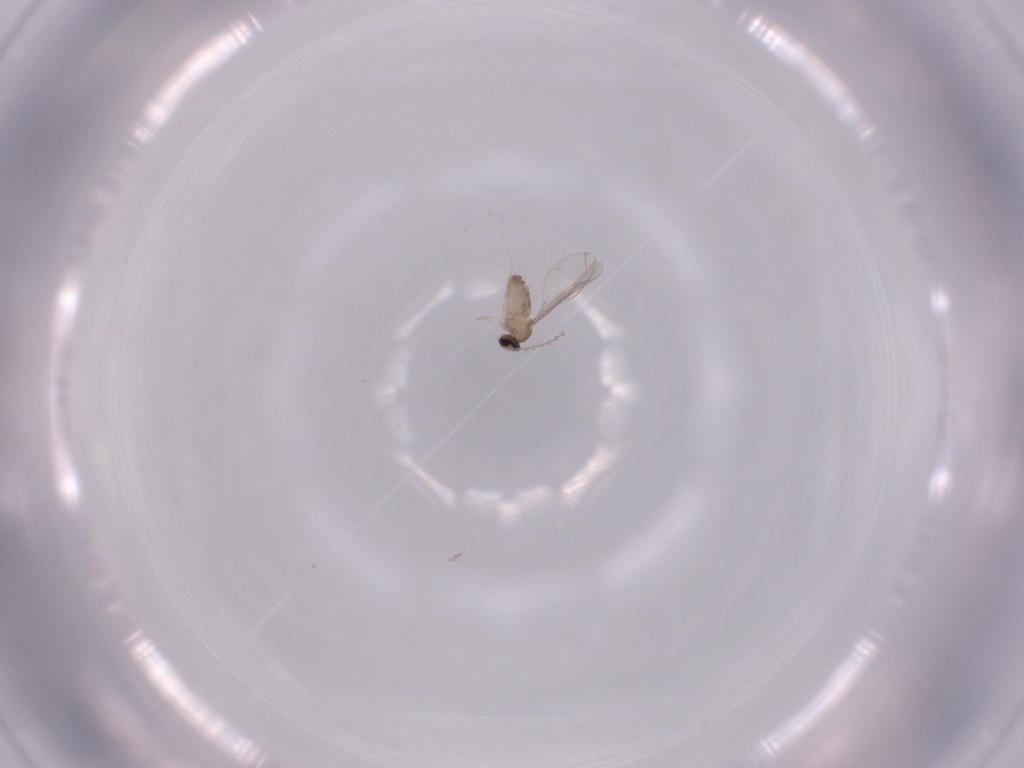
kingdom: Animalia
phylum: Arthropoda
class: Insecta
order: Diptera
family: Cecidomyiidae
